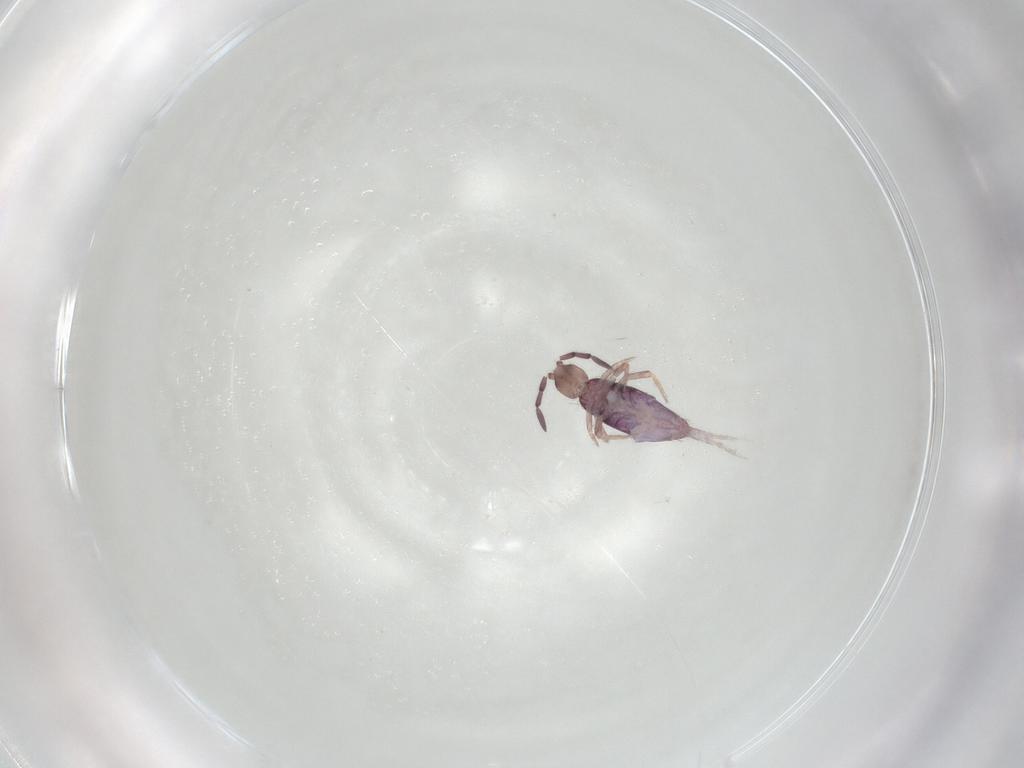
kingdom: Animalia
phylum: Arthropoda
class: Collembola
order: Entomobryomorpha
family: Entomobryidae
